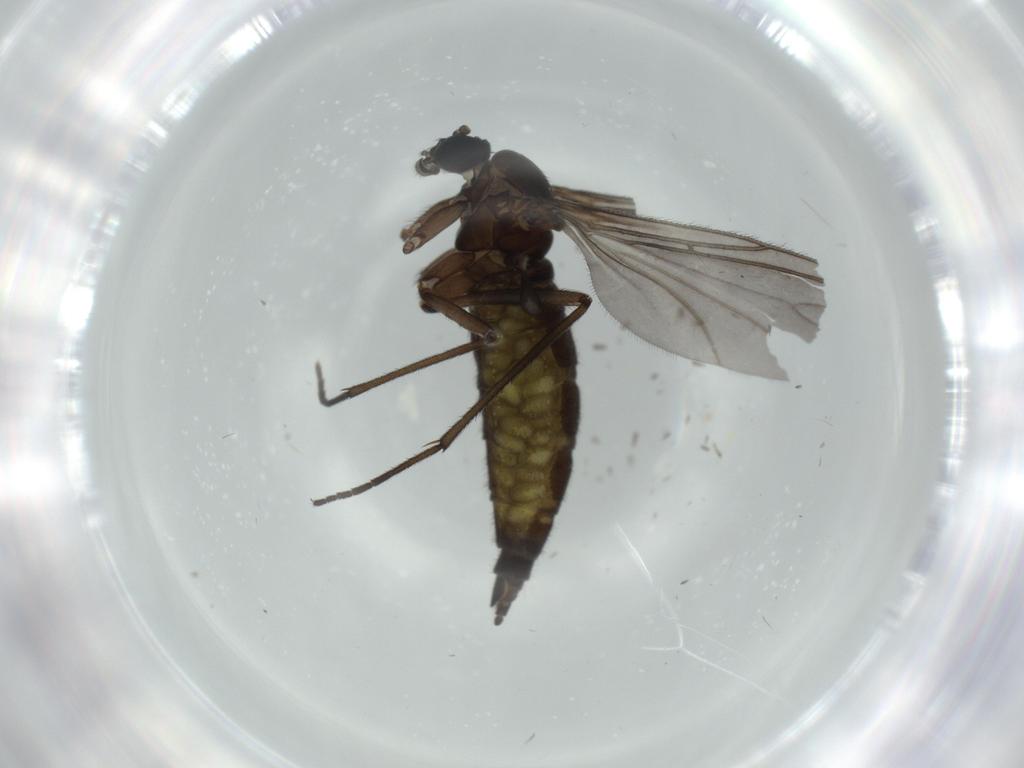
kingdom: Animalia
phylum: Arthropoda
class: Insecta
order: Diptera
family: Sciaridae
